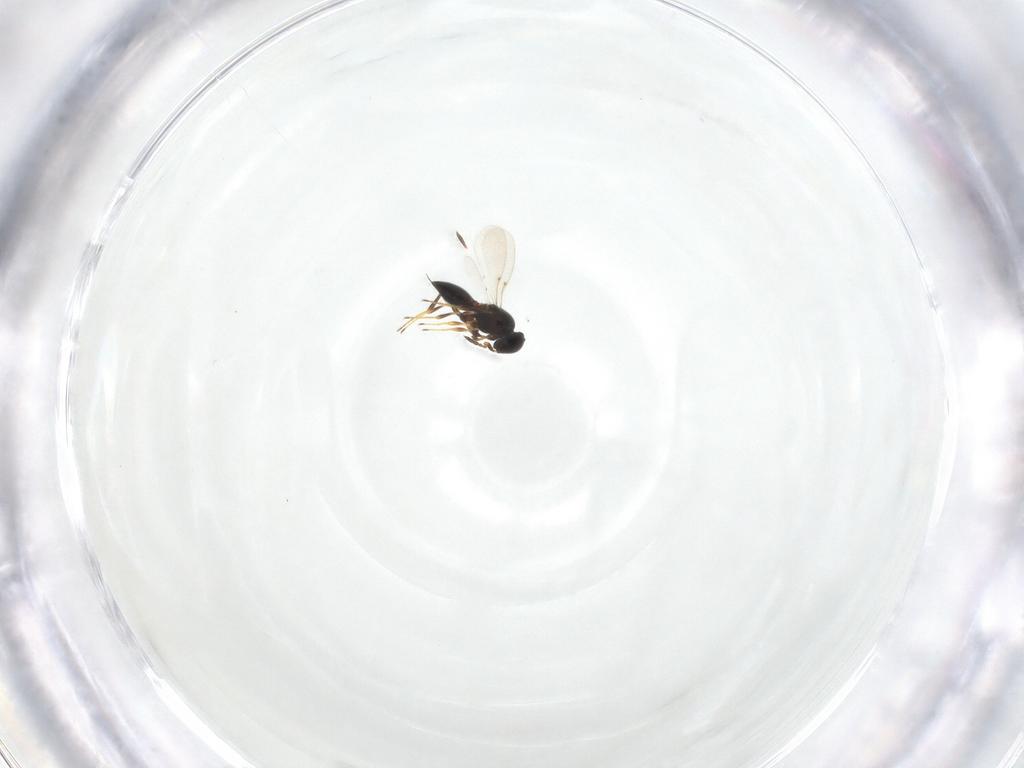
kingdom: Animalia
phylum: Arthropoda
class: Insecta
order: Hymenoptera
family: Platygastridae
